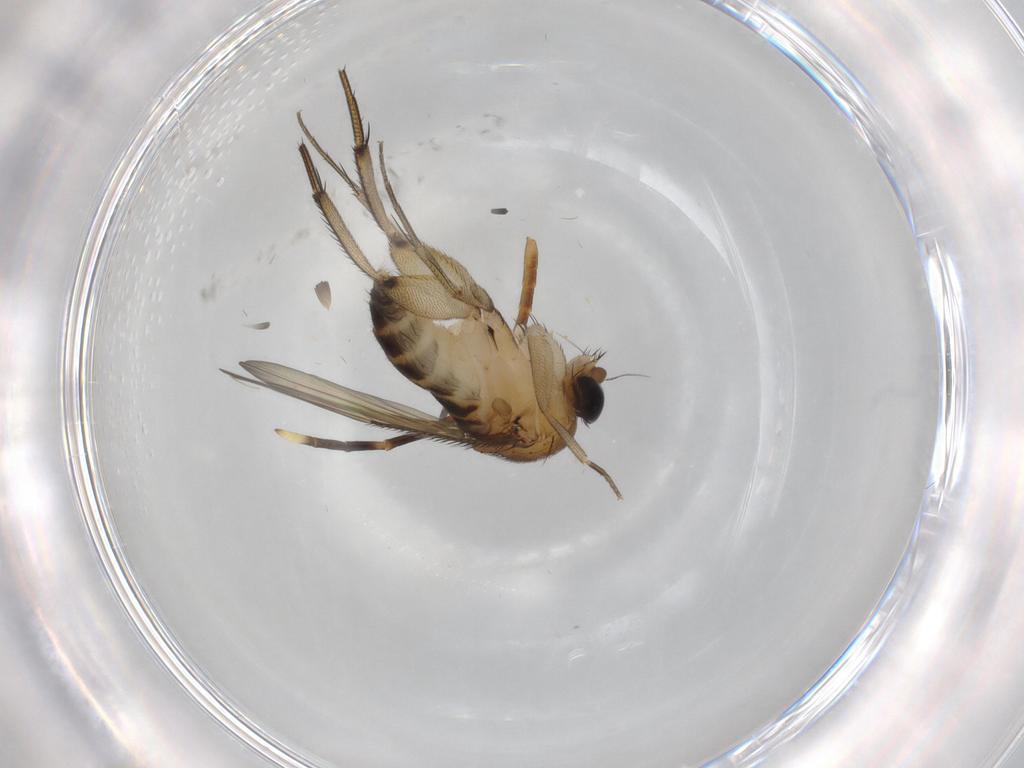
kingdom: Animalia
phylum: Arthropoda
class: Insecta
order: Diptera
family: Phoridae
